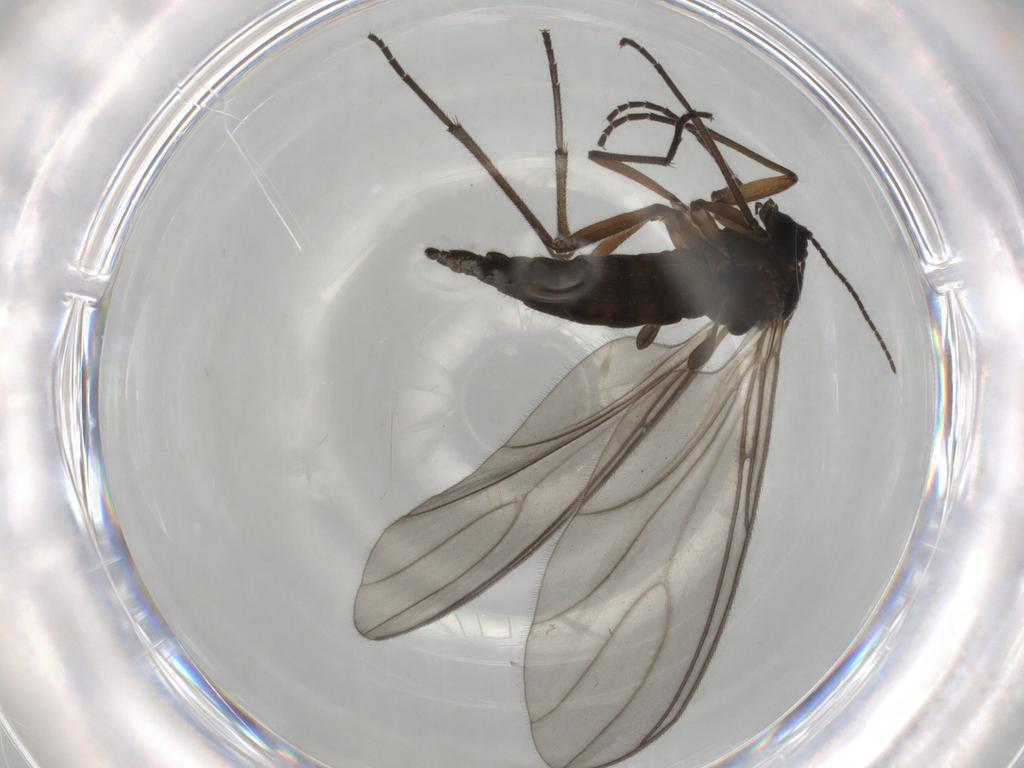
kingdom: Animalia
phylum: Arthropoda
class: Insecta
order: Diptera
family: Sciaridae
